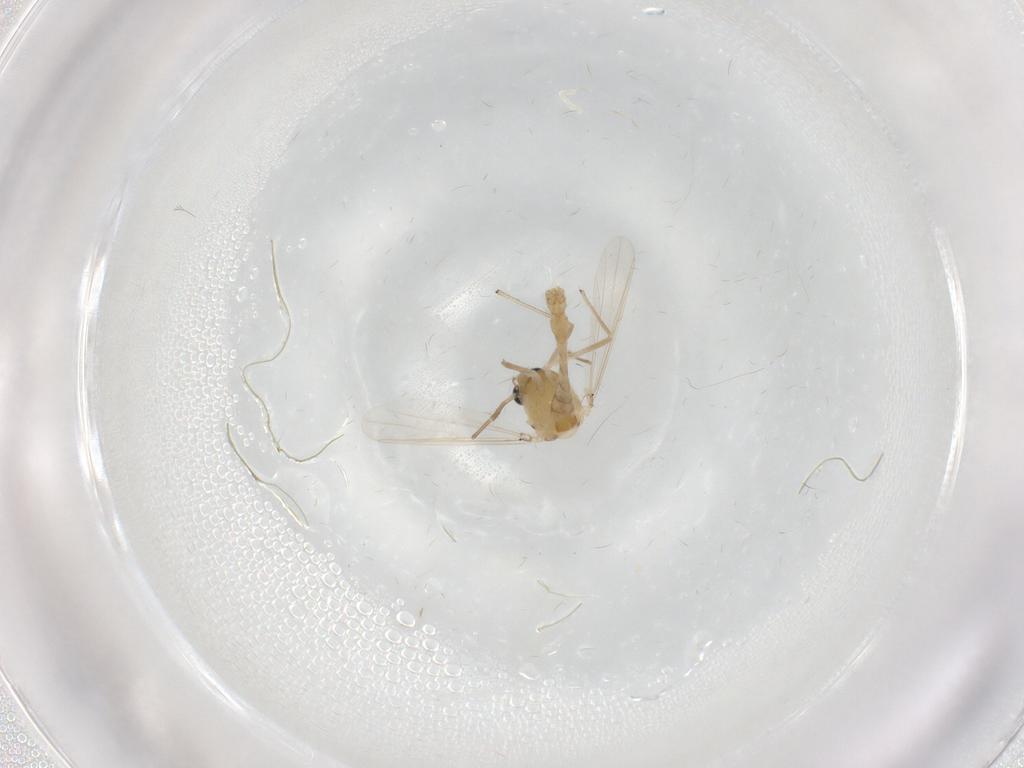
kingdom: Animalia
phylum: Arthropoda
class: Insecta
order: Diptera
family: Chironomidae
